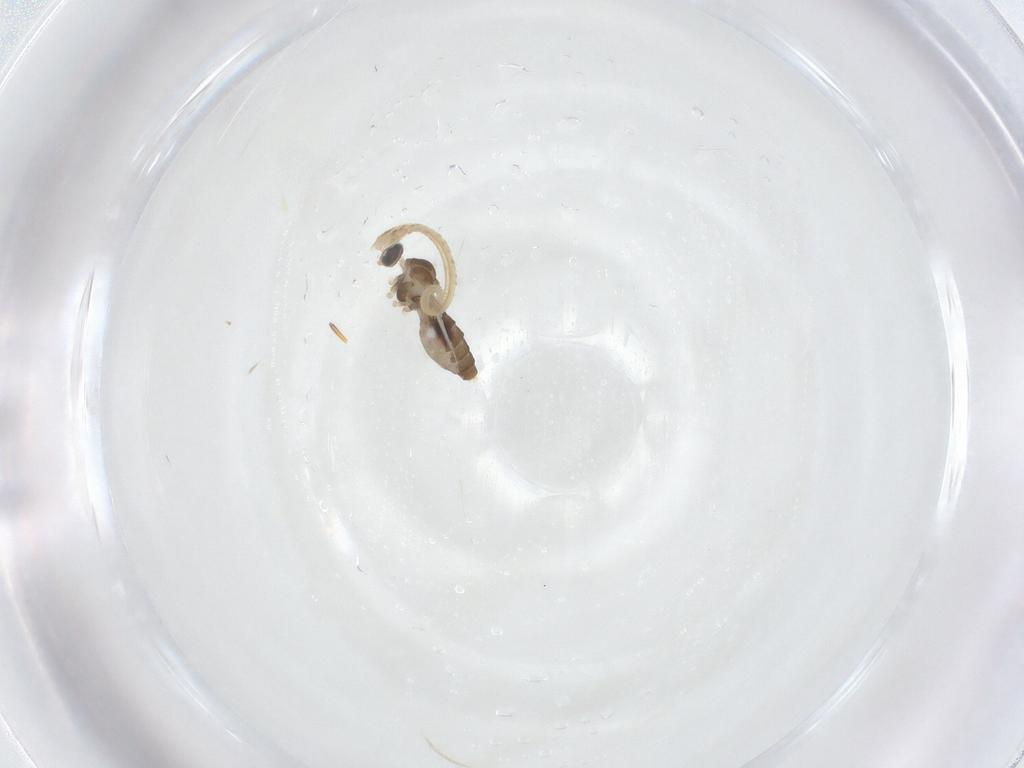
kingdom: Animalia
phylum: Arthropoda
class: Insecta
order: Diptera
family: Cecidomyiidae
